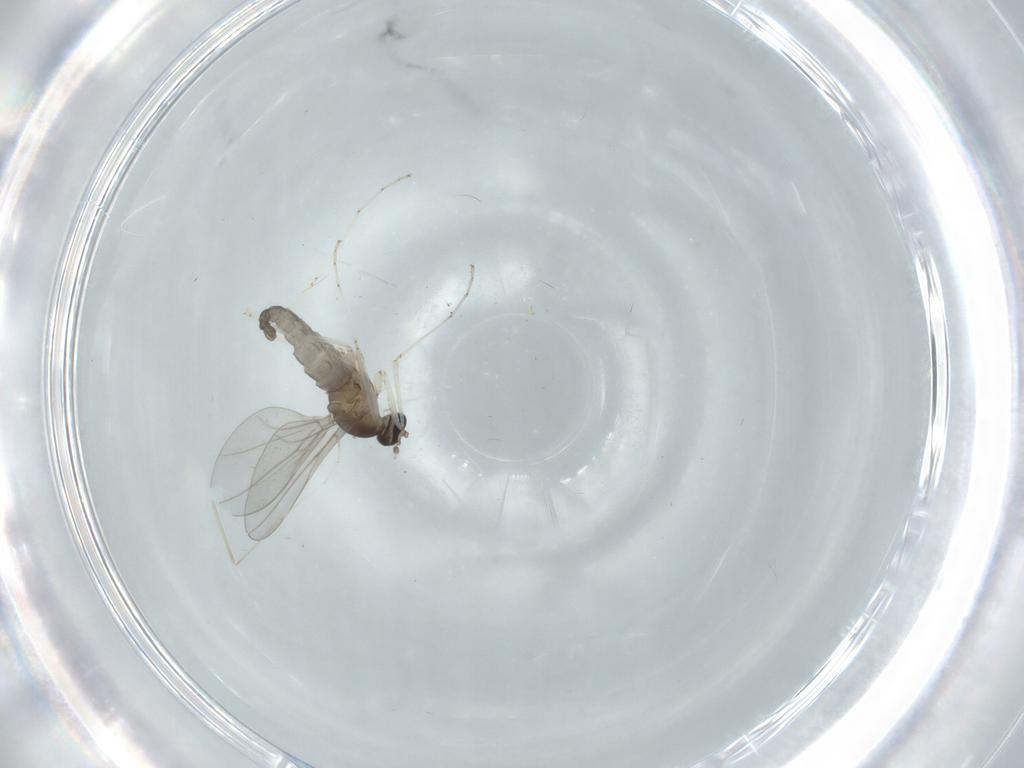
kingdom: Animalia
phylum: Arthropoda
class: Insecta
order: Diptera
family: Cecidomyiidae
